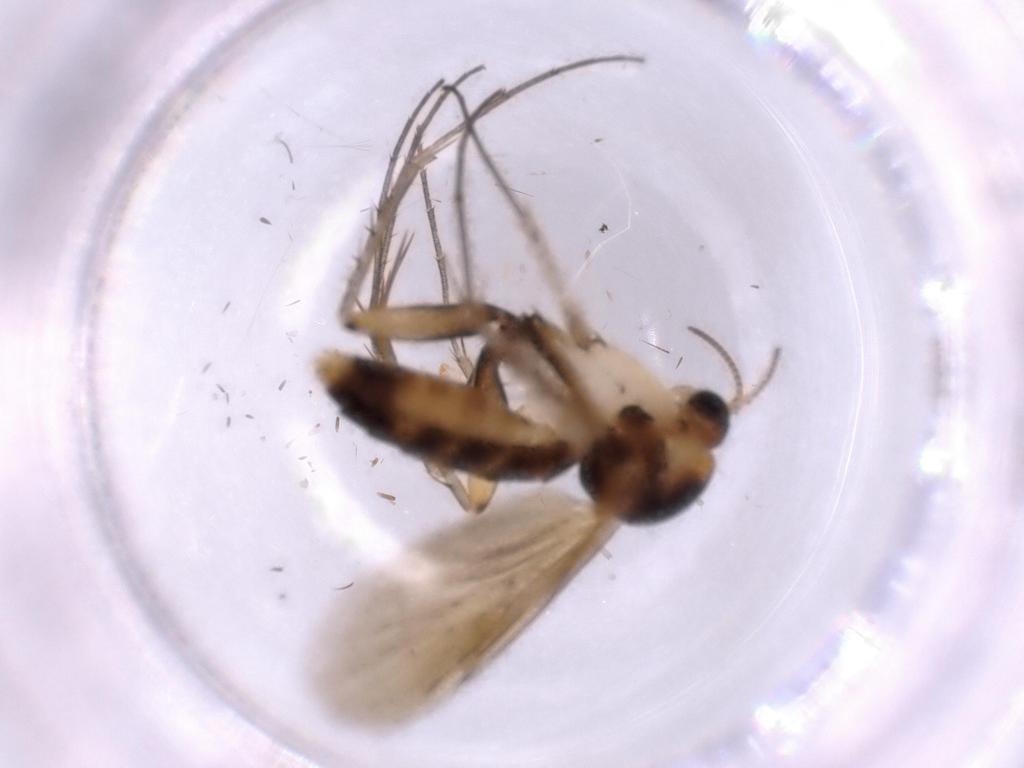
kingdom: Animalia
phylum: Arthropoda
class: Insecta
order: Diptera
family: Mycetophilidae
